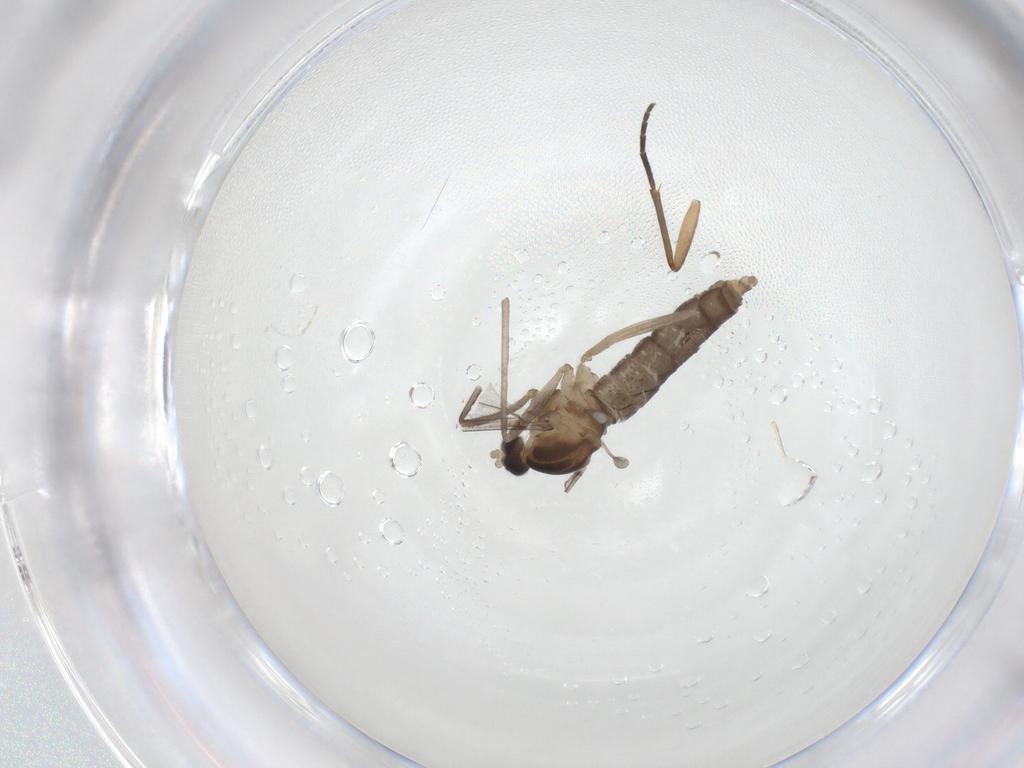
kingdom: Animalia
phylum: Arthropoda
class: Insecta
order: Diptera
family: Cecidomyiidae
